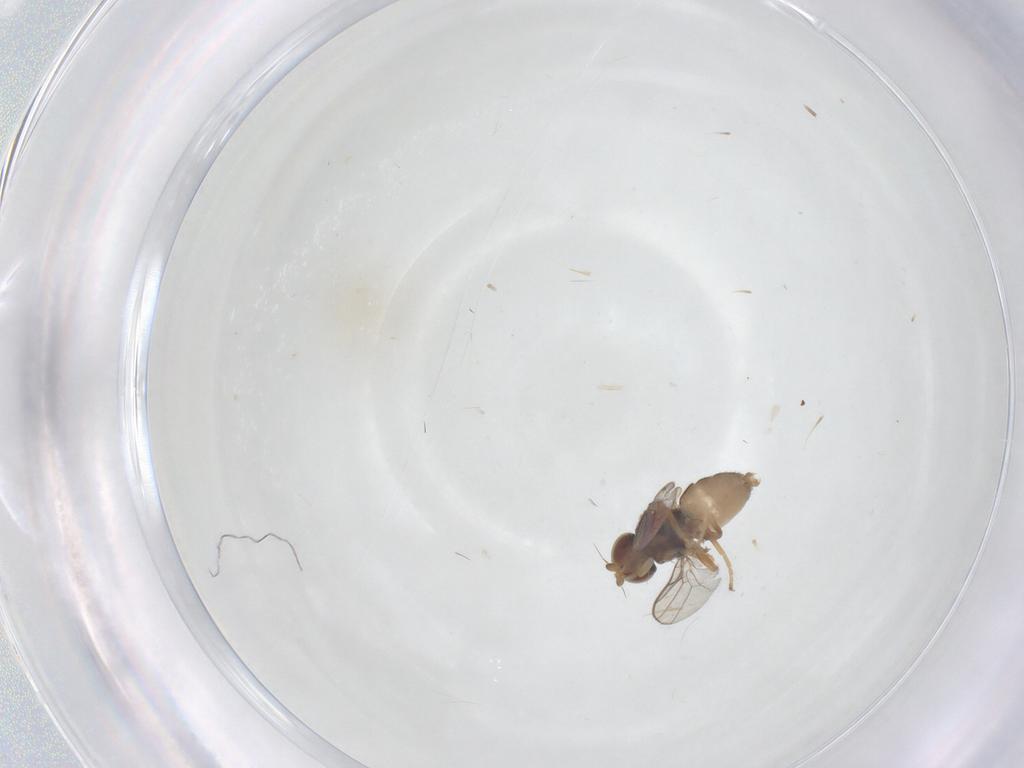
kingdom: Animalia
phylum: Arthropoda
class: Insecta
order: Diptera
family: Chloropidae
